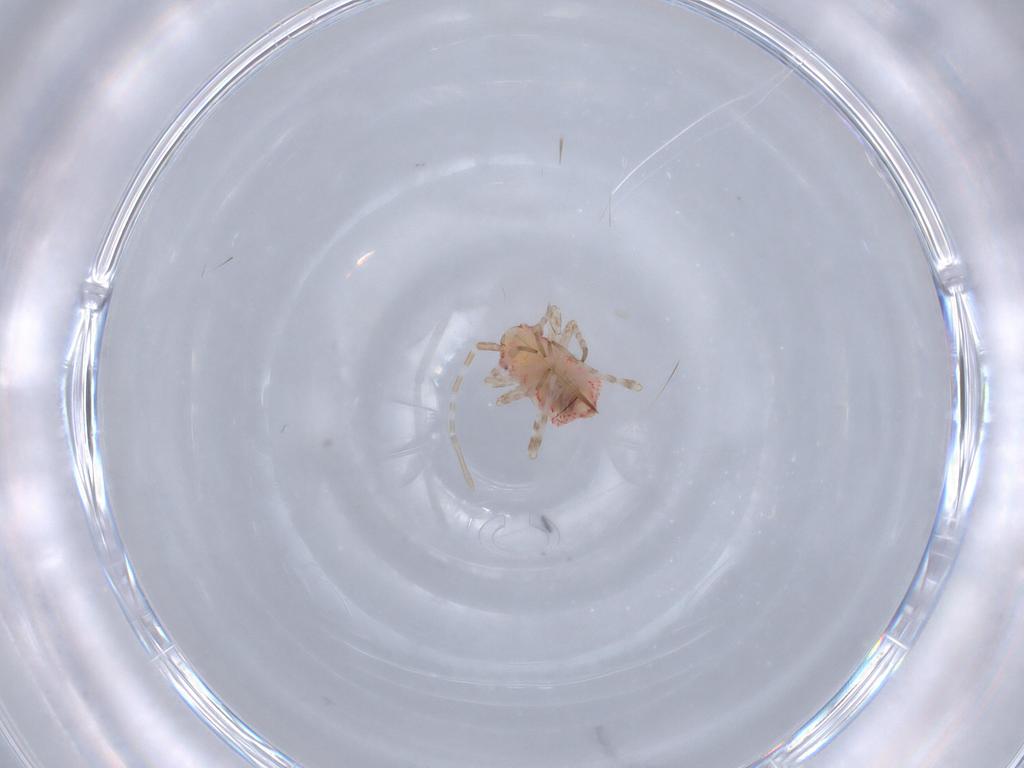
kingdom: Animalia
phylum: Arthropoda
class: Insecta
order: Hemiptera
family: Miridae
